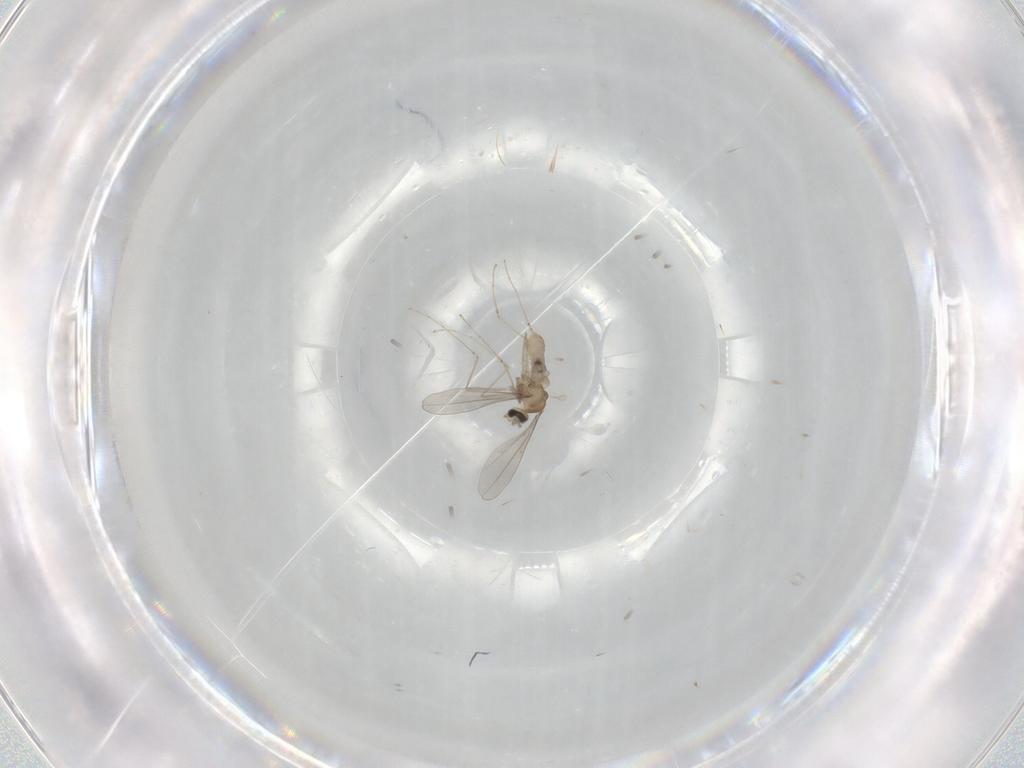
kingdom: Animalia
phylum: Arthropoda
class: Insecta
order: Diptera
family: Cecidomyiidae
